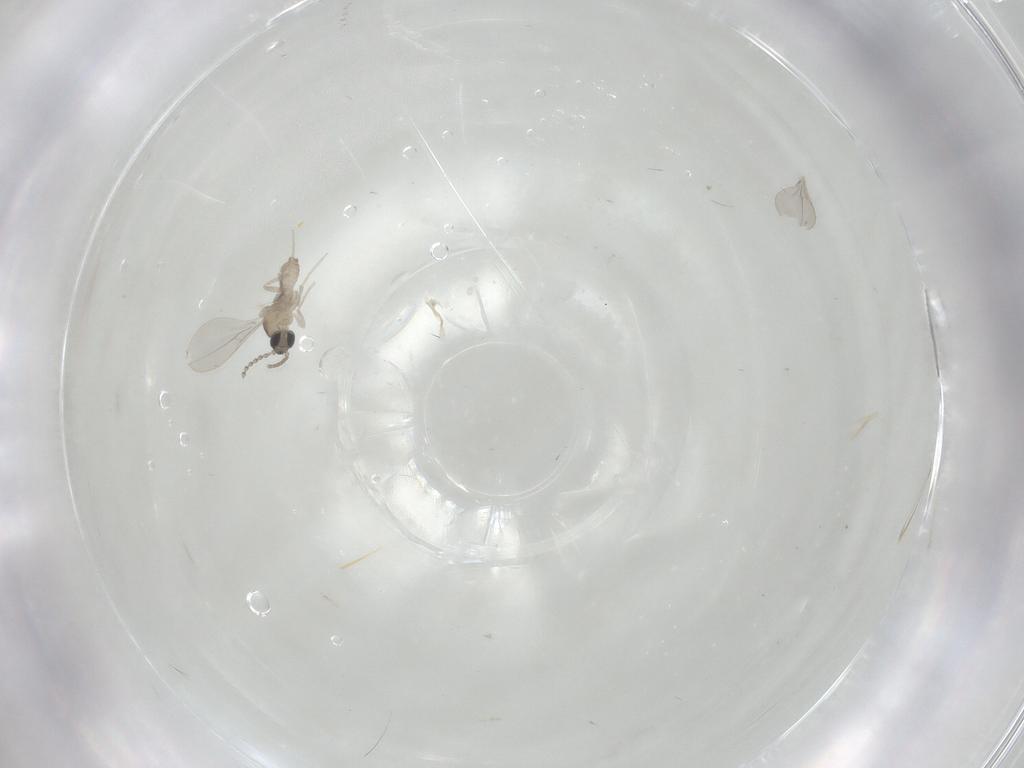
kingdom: Animalia
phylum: Arthropoda
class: Insecta
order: Diptera
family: Cecidomyiidae
